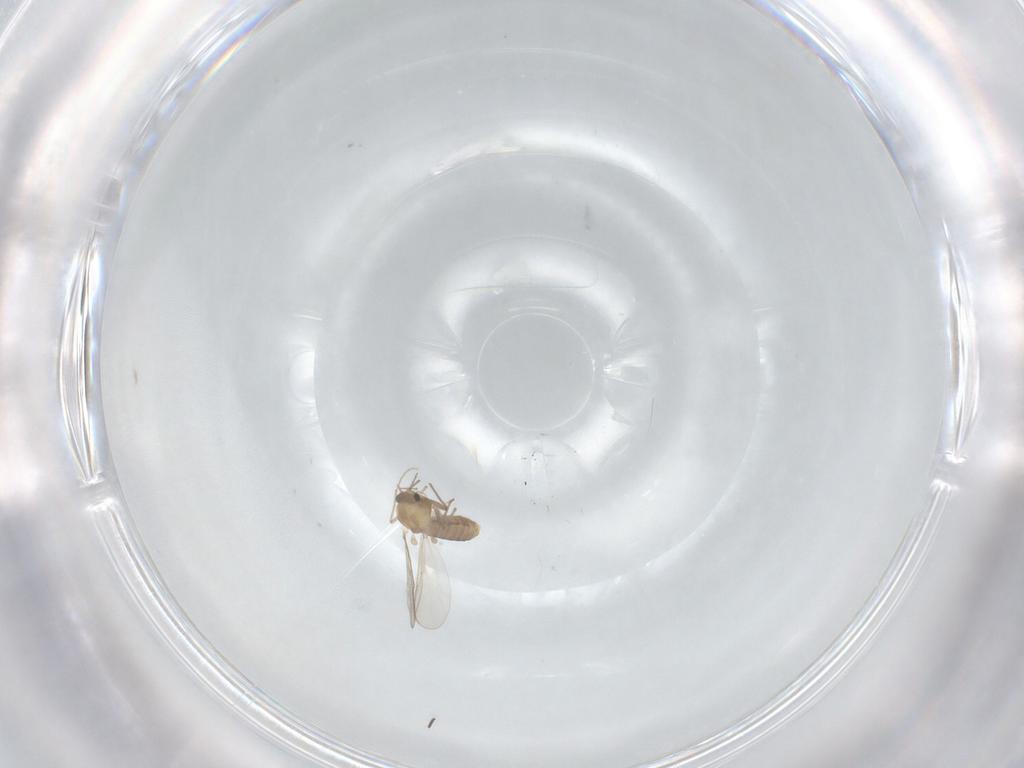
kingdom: Animalia
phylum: Arthropoda
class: Insecta
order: Diptera
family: Chironomidae
